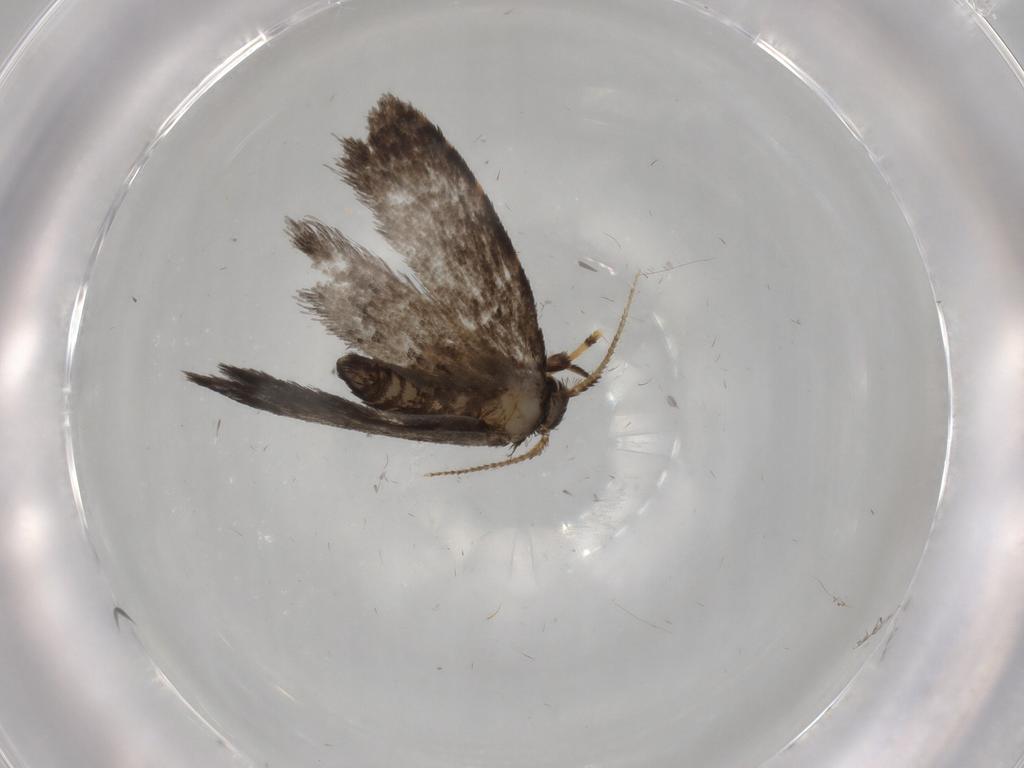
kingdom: Animalia
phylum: Arthropoda
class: Insecta
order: Lepidoptera
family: Psychidae
